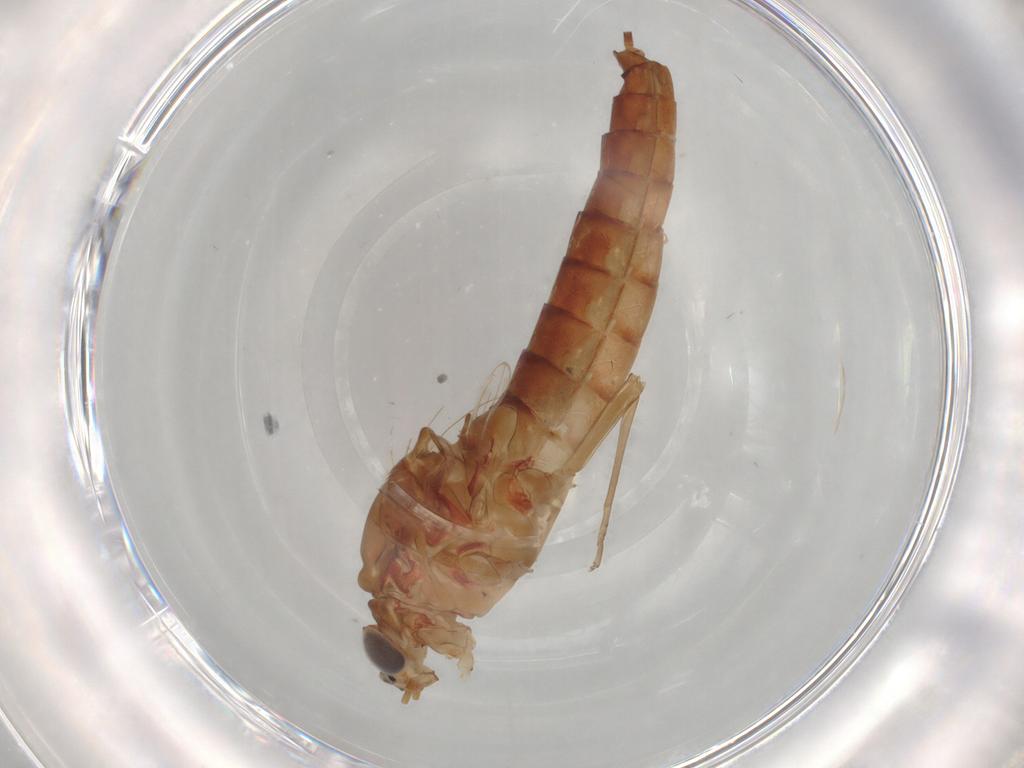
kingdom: Animalia
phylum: Arthropoda
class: Insecta
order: Diptera
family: Chironomidae
